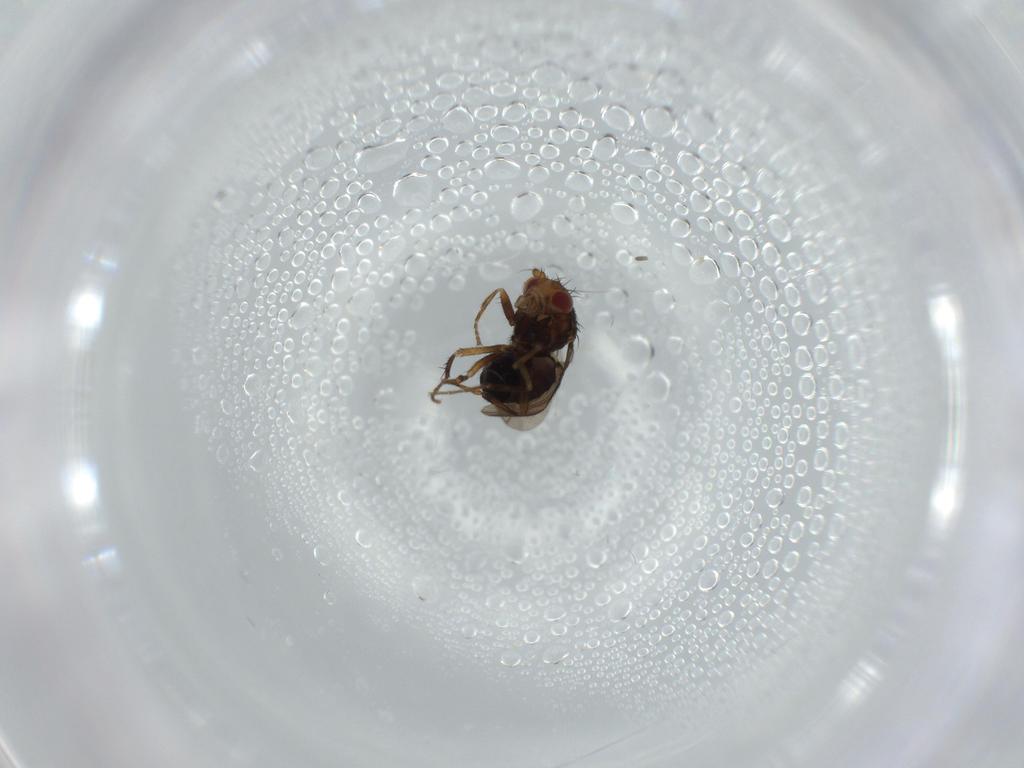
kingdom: Animalia
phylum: Arthropoda
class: Insecta
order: Diptera
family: Sphaeroceridae
